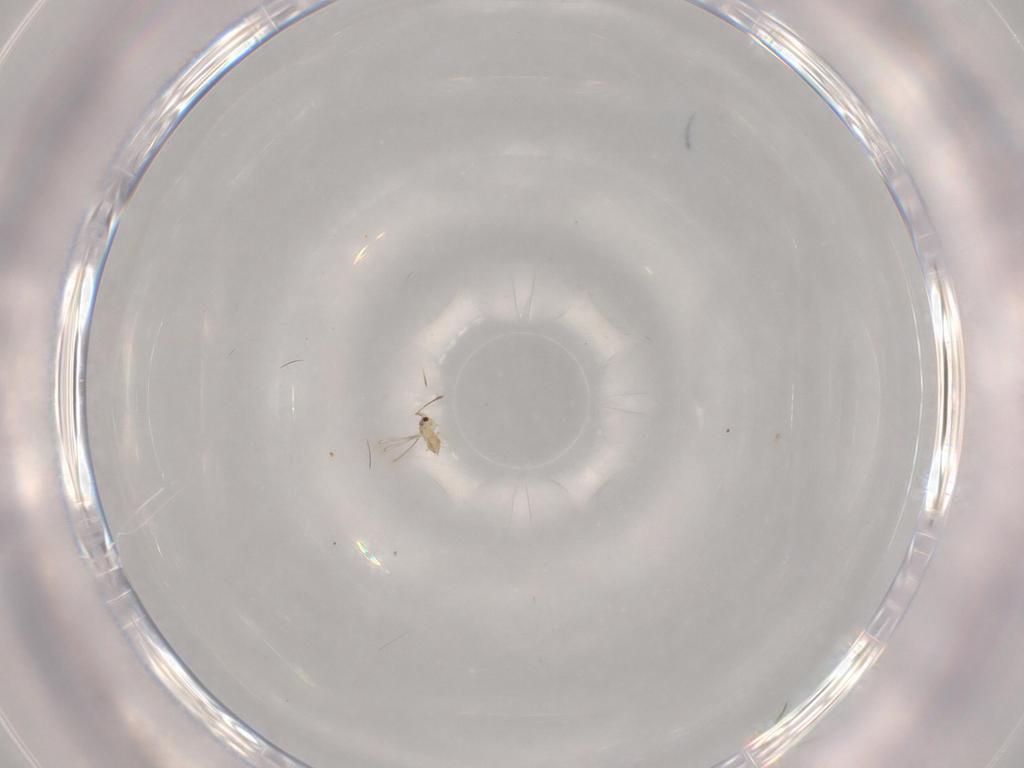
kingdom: Animalia
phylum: Arthropoda
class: Insecta
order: Hymenoptera
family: Mymaridae
